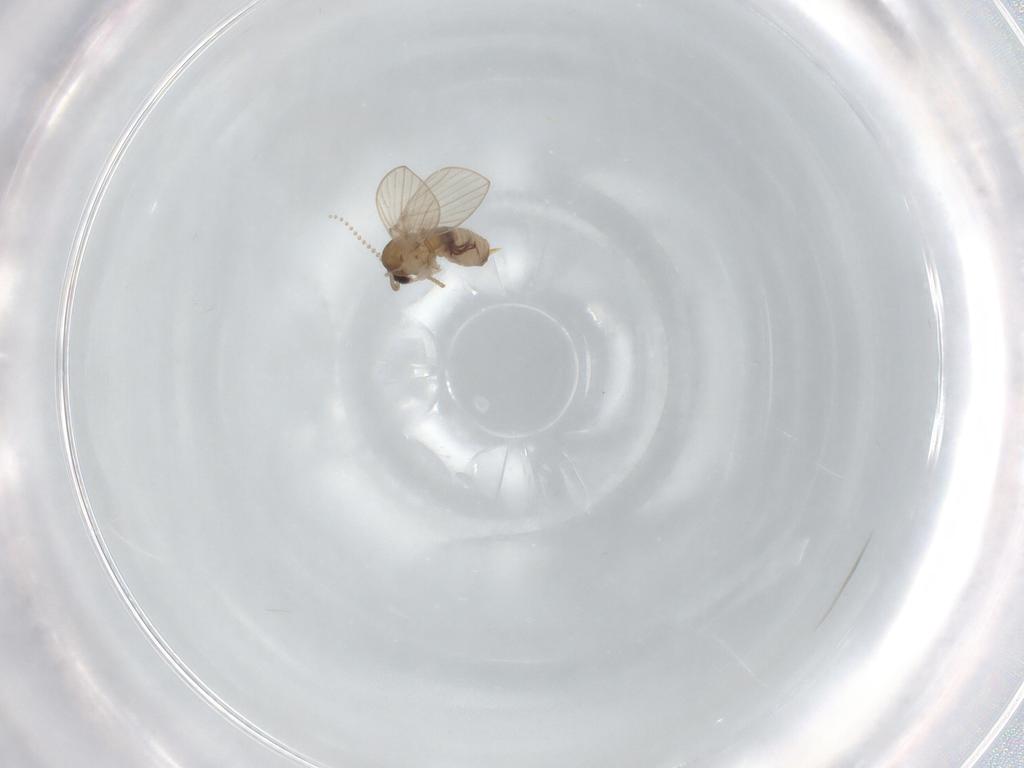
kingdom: Animalia
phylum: Arthropoda
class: Insecta
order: Diptera
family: Psychodidae
